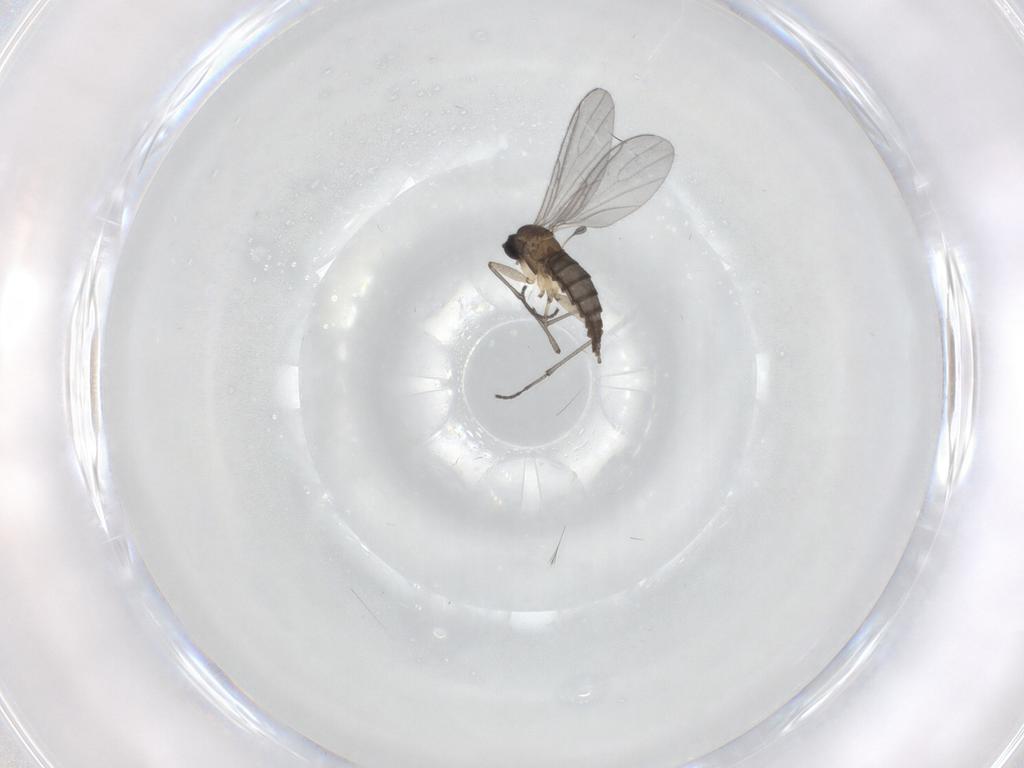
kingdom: Animalia
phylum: Arthropoda
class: Insecta
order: Diptera
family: Sciaridae
